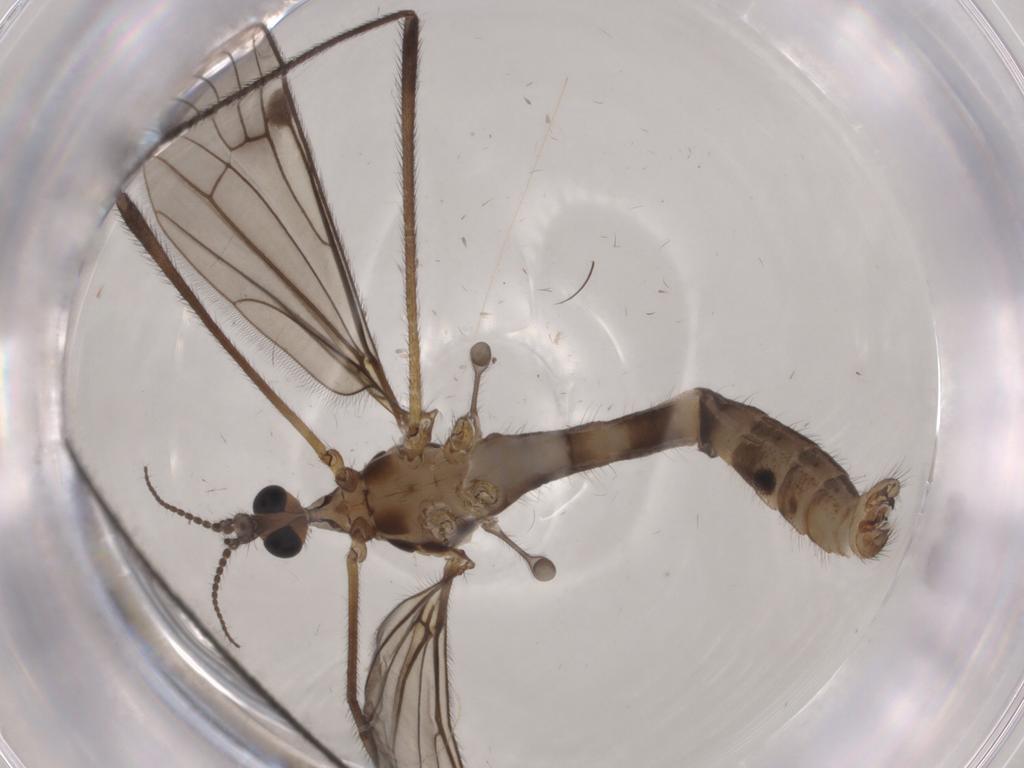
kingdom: Animalia
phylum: Arthropoda
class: Insecta
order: Diptera
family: Limoniidae
